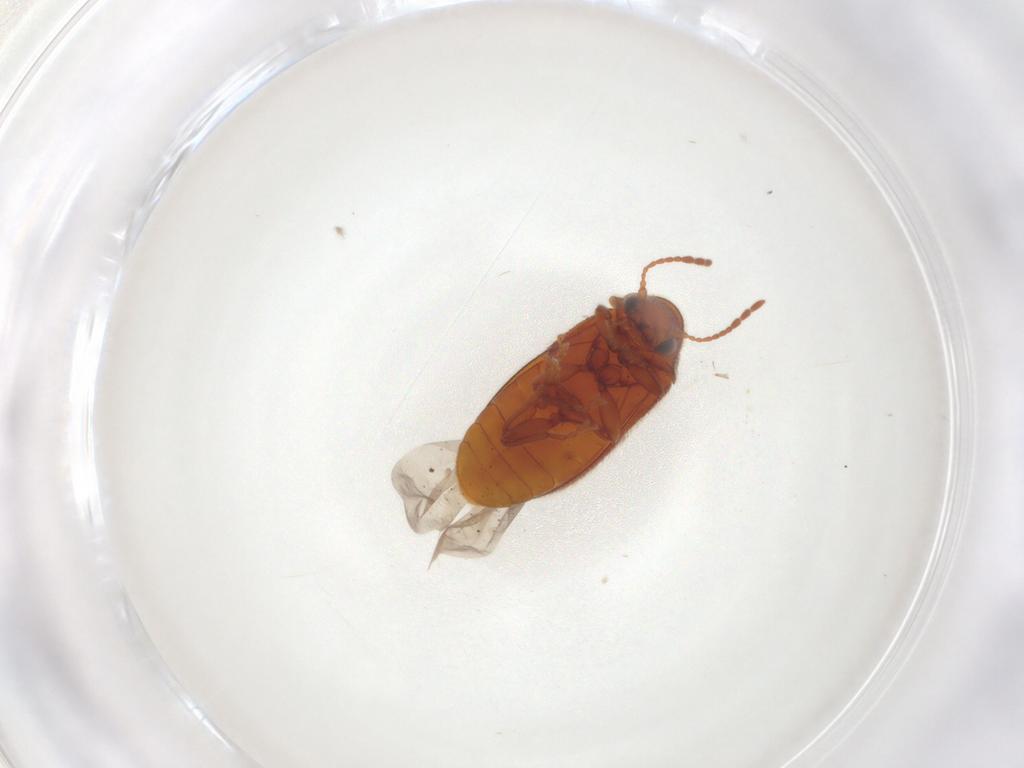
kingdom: Animalia
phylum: Arthropoda
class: Insecta
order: Coleoptera
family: Ptinidae
